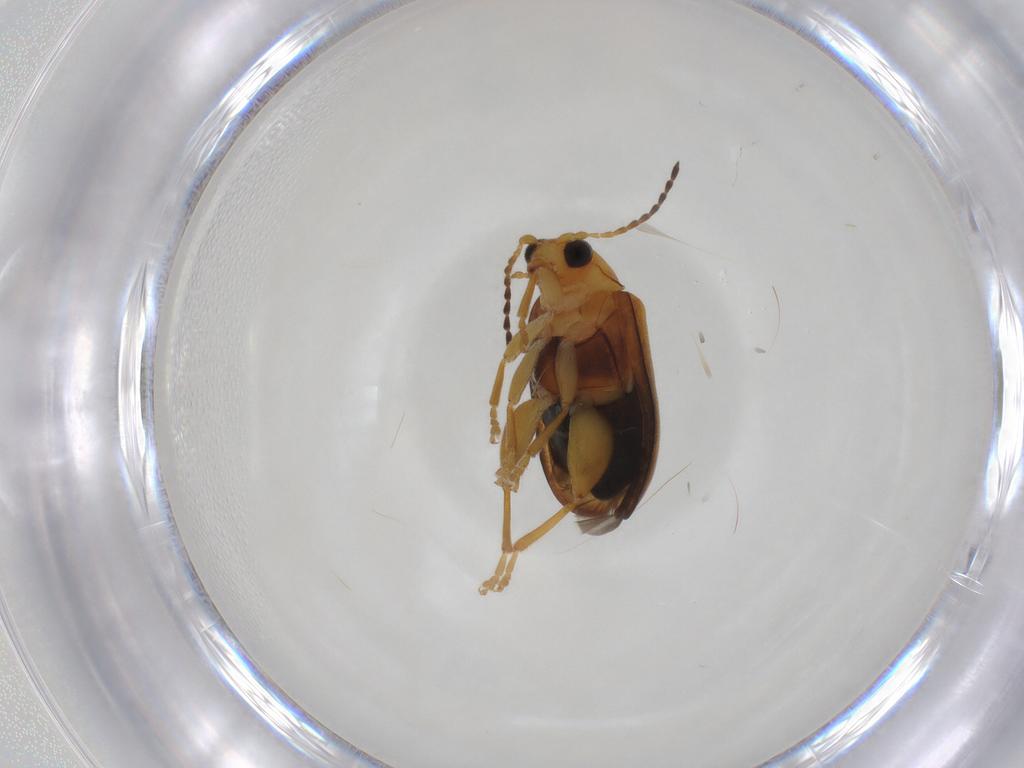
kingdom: Animalia
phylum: Arthropoda
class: Insecta
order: Coleoptera
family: Chrysomelidae
